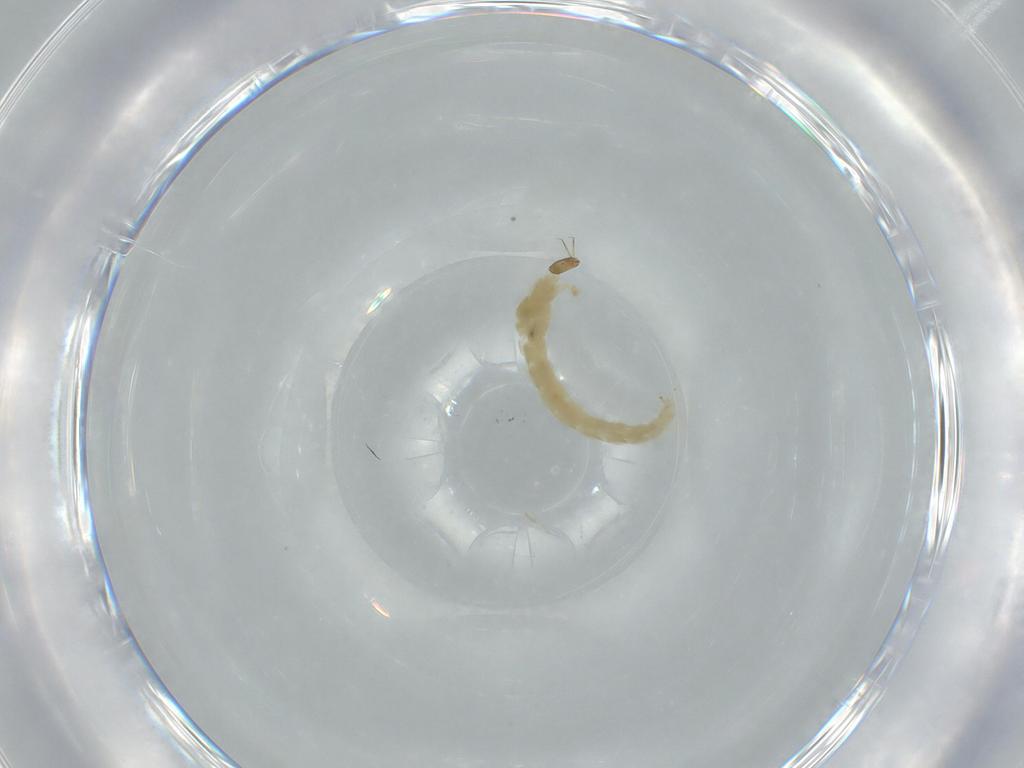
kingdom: Animalia
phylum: Arthropoda
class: Insecta
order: Diptera
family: Chironomidae
